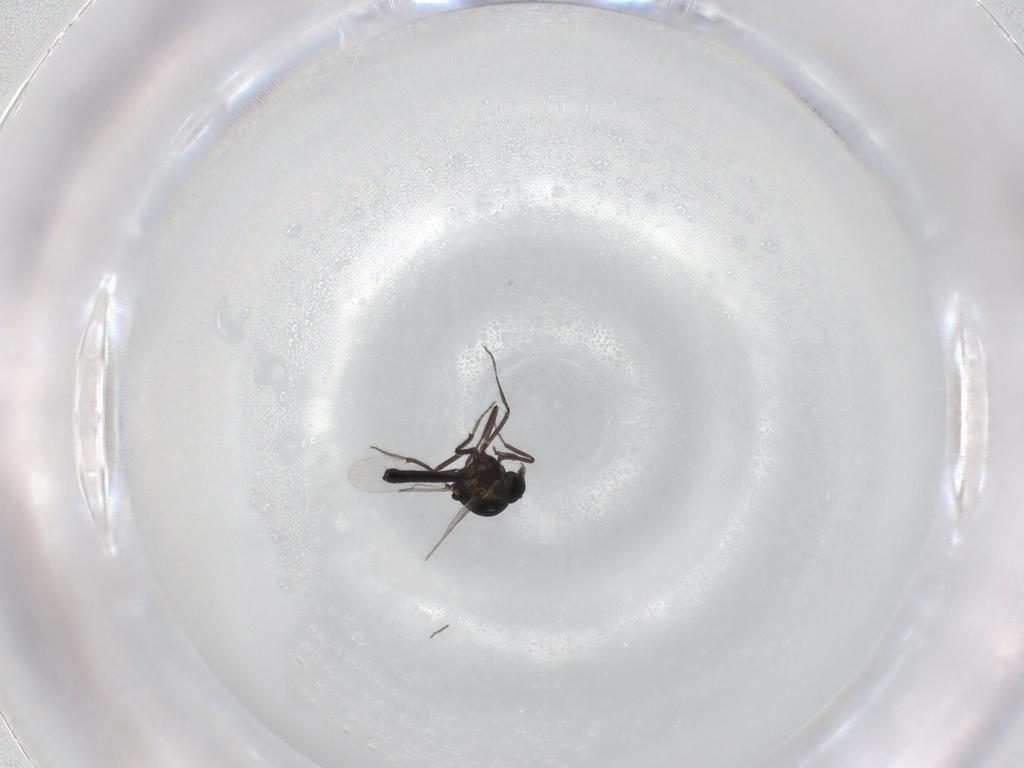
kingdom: Animalia
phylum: Arthropoda
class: Insecta
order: Diptera
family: Ceratopogonidae
